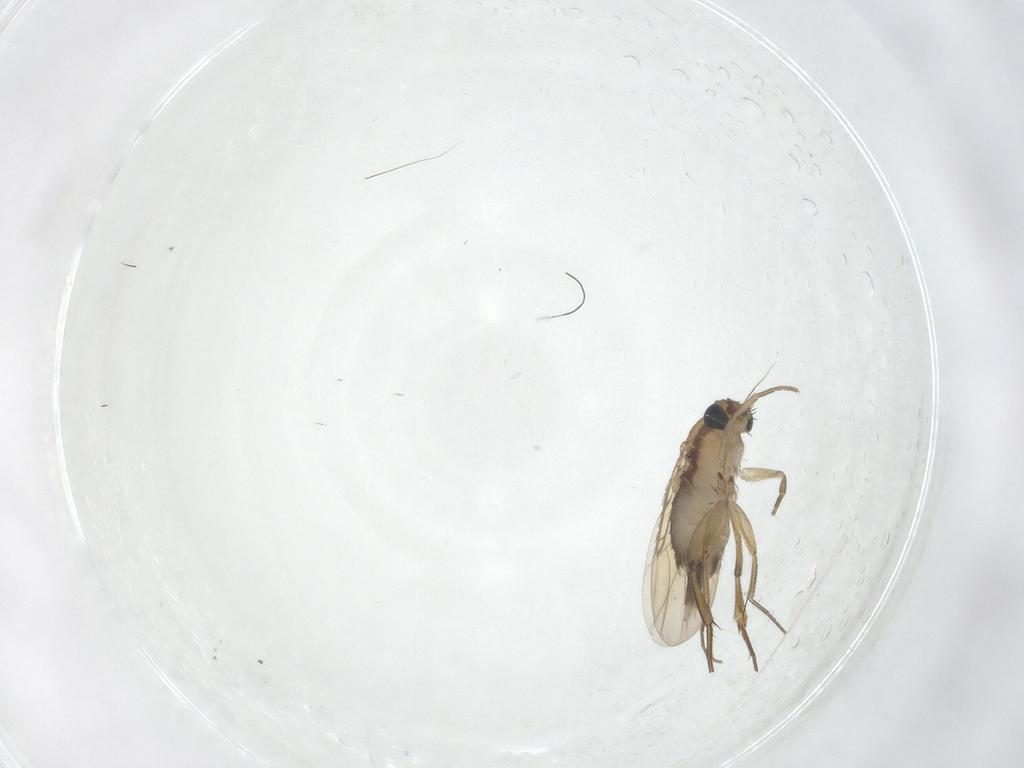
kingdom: Animalia
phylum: Arthropoda
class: Insecta
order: Diptera
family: Phoridae
